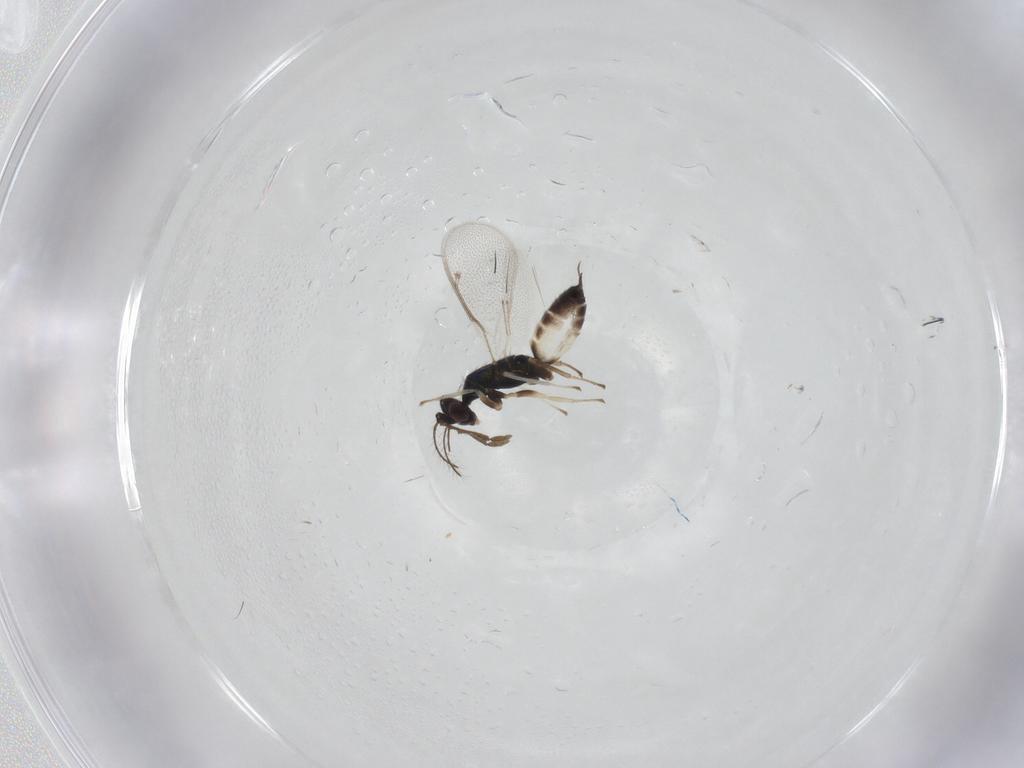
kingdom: Animalia
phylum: Arthropoda
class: Insecta
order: Hymenoptera
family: Eulophidae
